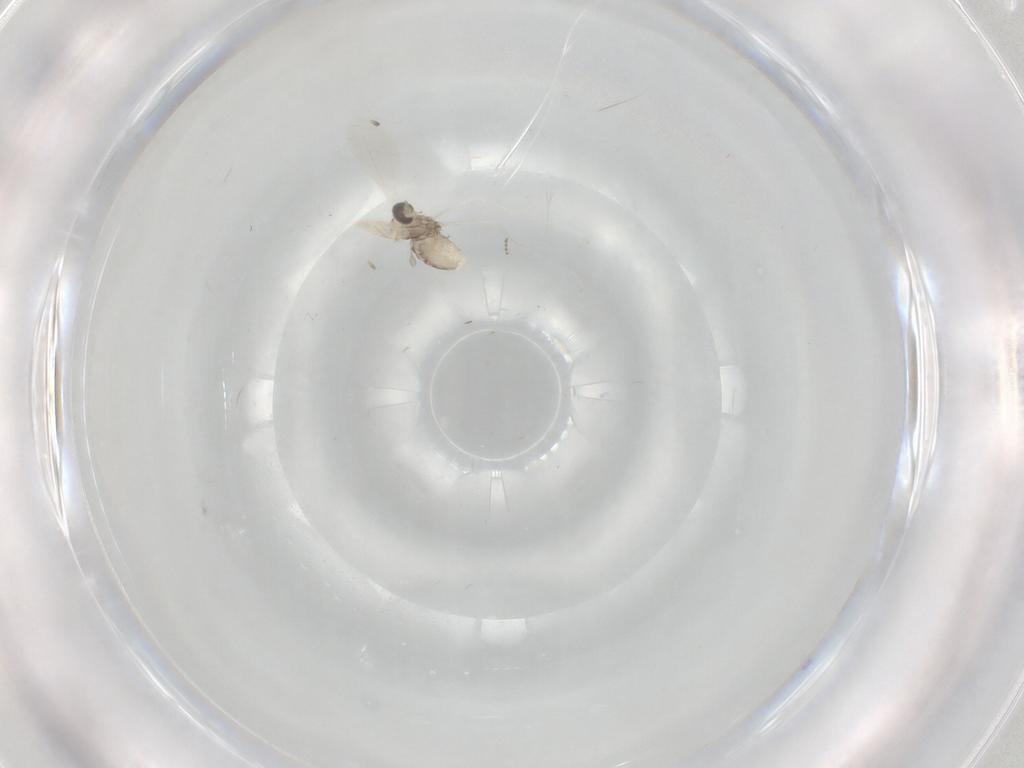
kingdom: Animalia
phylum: Arthropoda
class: Insecta
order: Diptera
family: Cecidomyiidae
